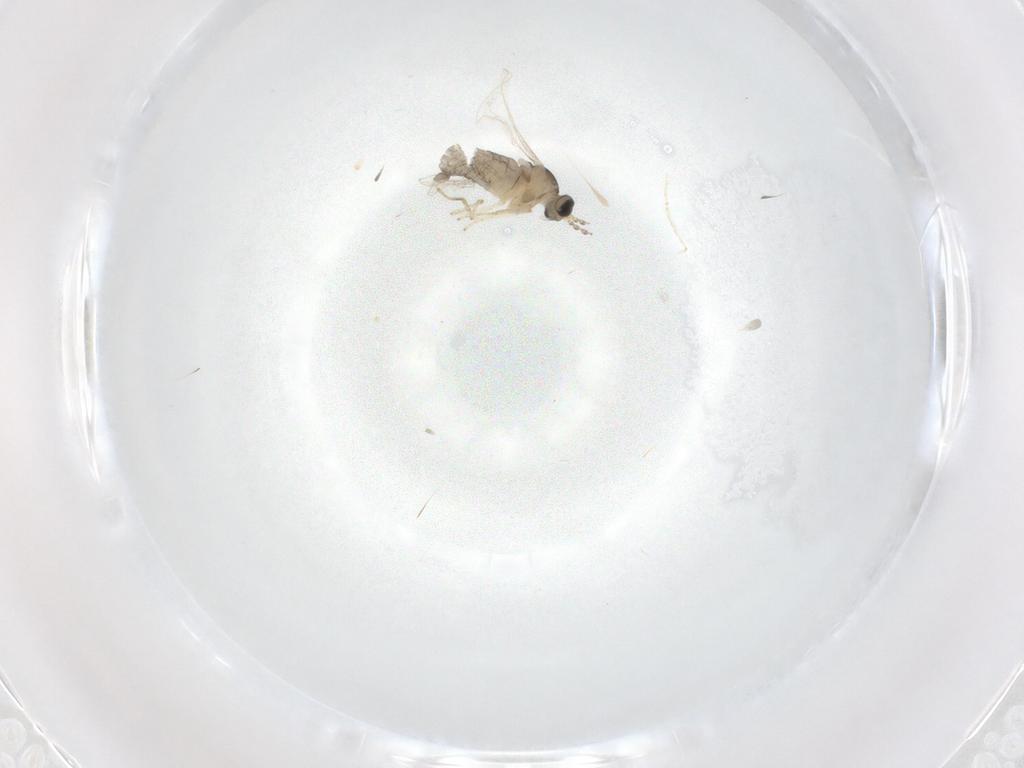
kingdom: Animalia
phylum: Arthropoda
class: Insecta
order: Diptera
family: Cecidomyiidae
